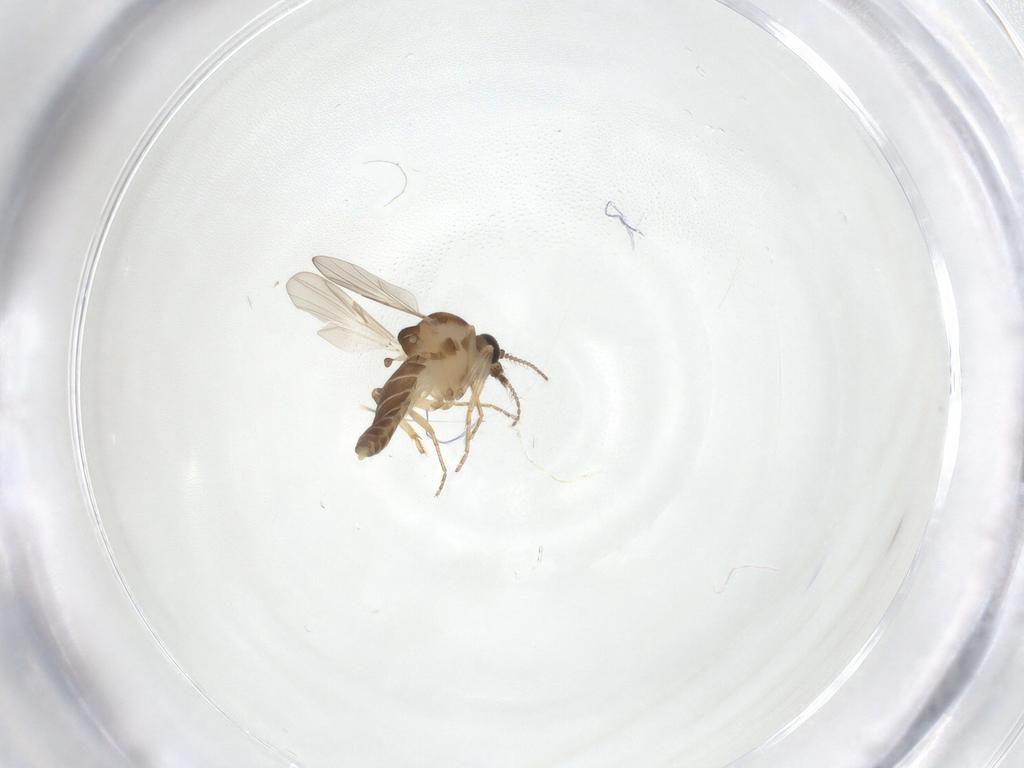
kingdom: Animalia
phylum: Arthropoda
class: Insecta
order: Diptera
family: Ceratopogonidae
